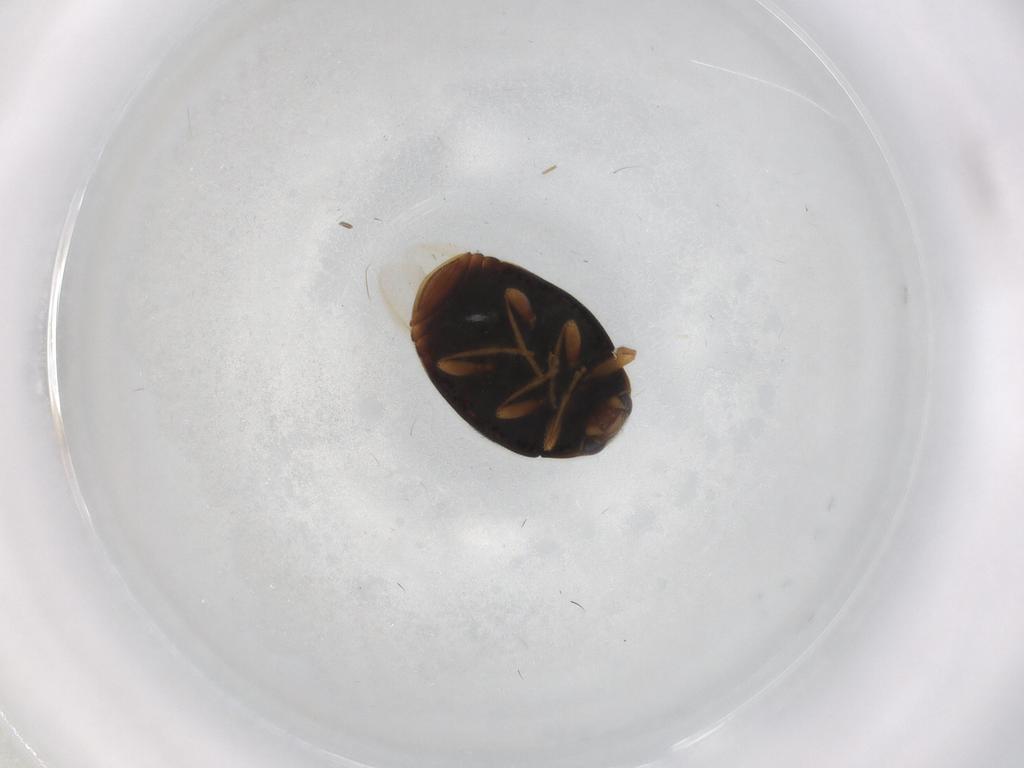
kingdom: Animalia
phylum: Arthropoda
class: Insecta
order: Coleoptera
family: Coccinellidae
